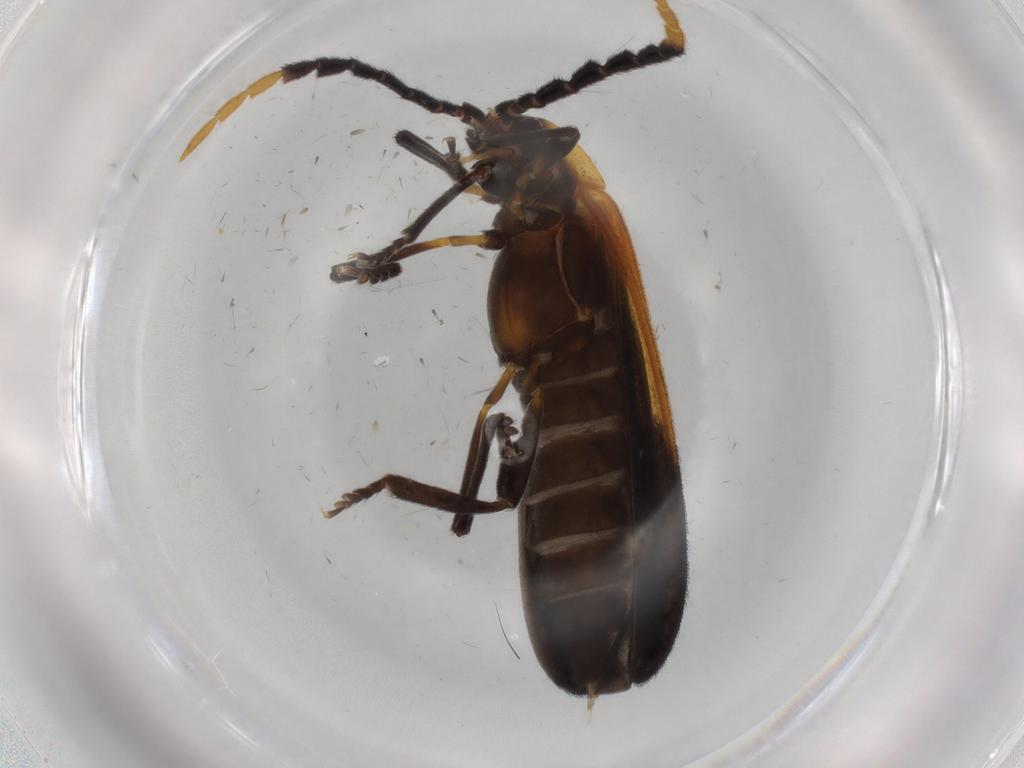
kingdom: Animalia
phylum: Arthropoda
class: Insecta
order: Coleoptera
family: Lycidae
